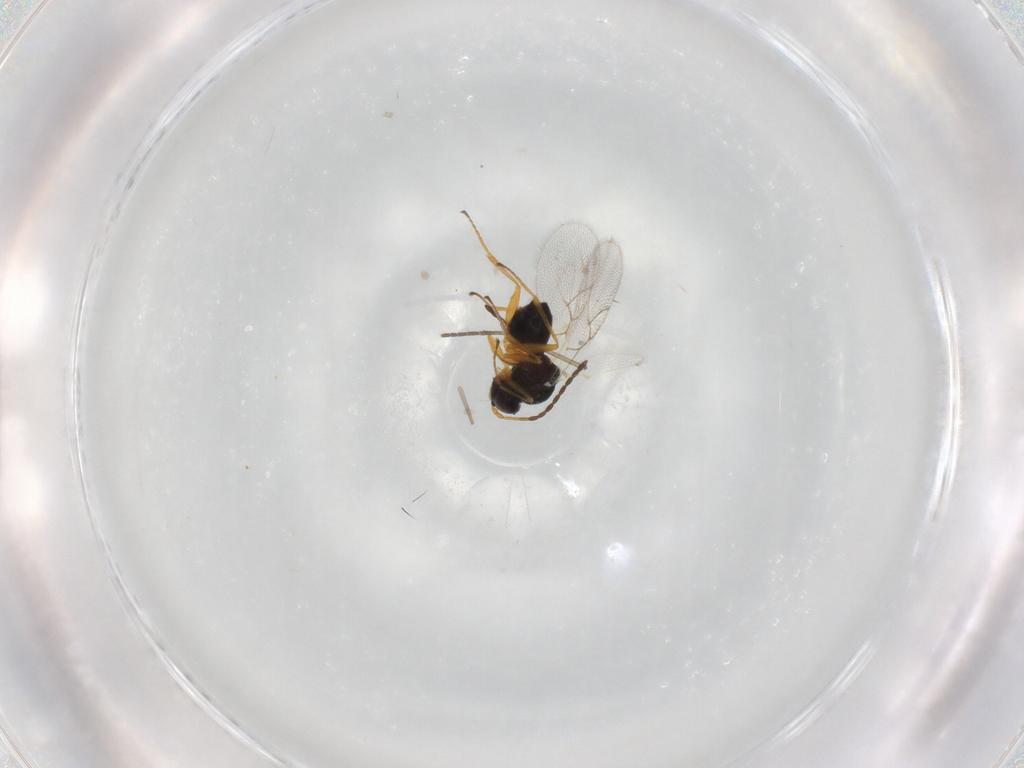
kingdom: Animalia
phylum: Arthropoda
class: Insecta
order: Hymenoptera
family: Figitidae
